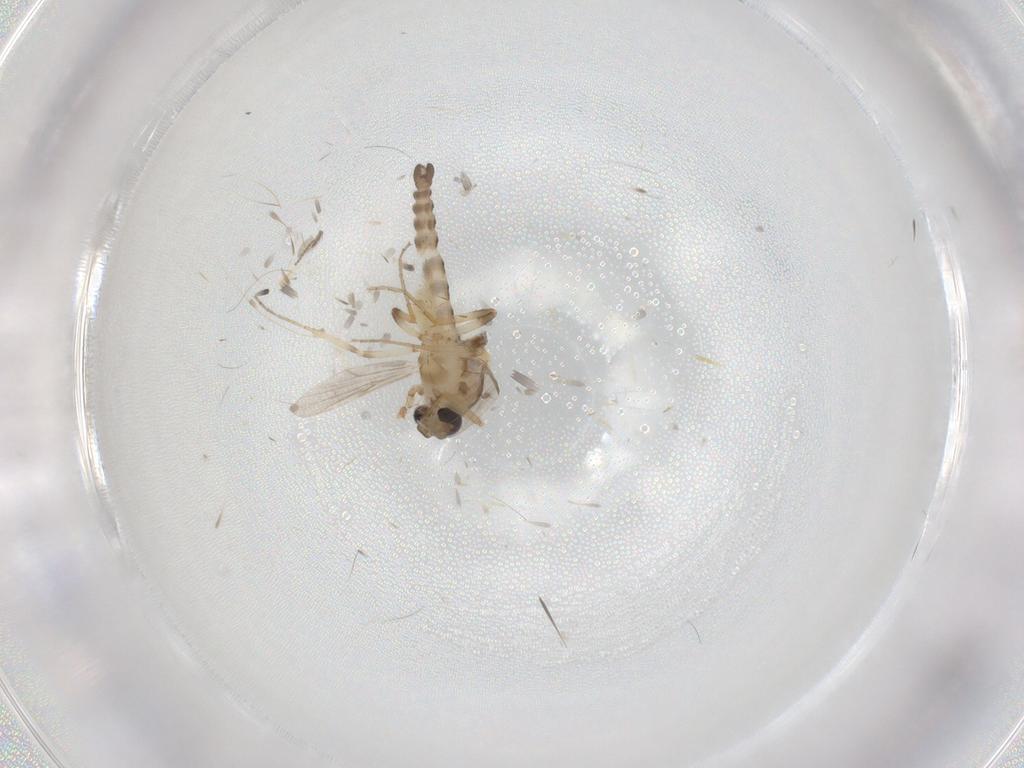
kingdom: Animalia
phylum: Arthropoda
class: Insecta
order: Diptera
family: Ceratopogonidae
